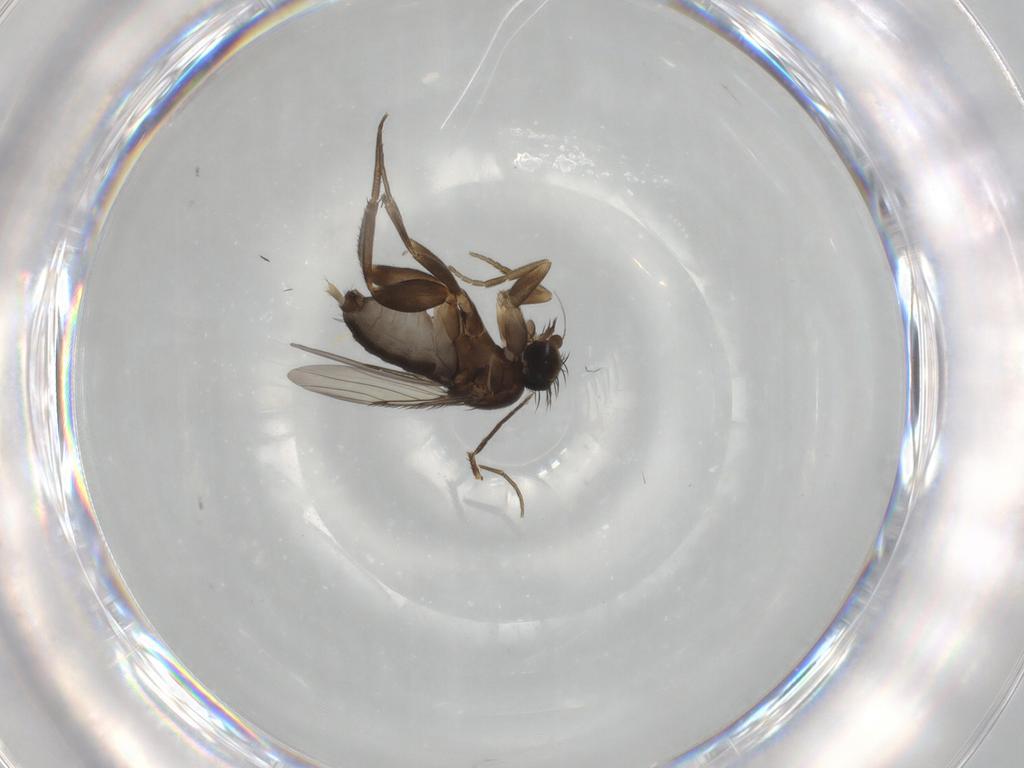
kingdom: Animalia
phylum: Arthropoda
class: Insecta
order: Diptera
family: Phoridae
